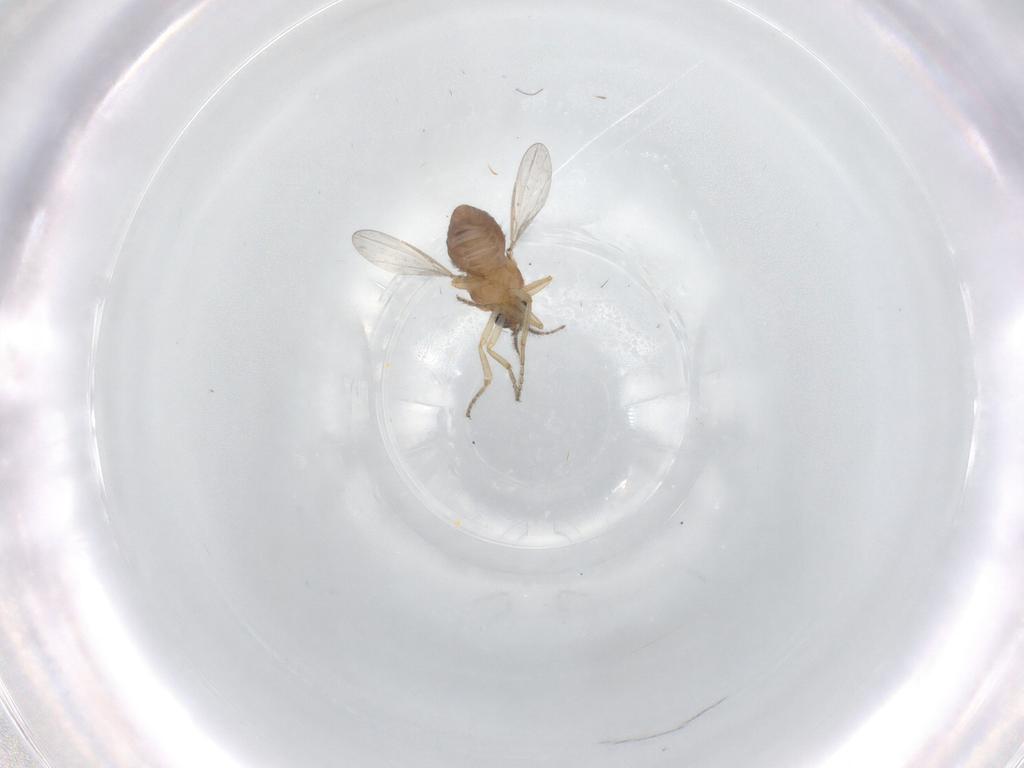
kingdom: Animalia
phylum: Arthropoda
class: Insecta
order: Diptera
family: Ceratopogonidae
